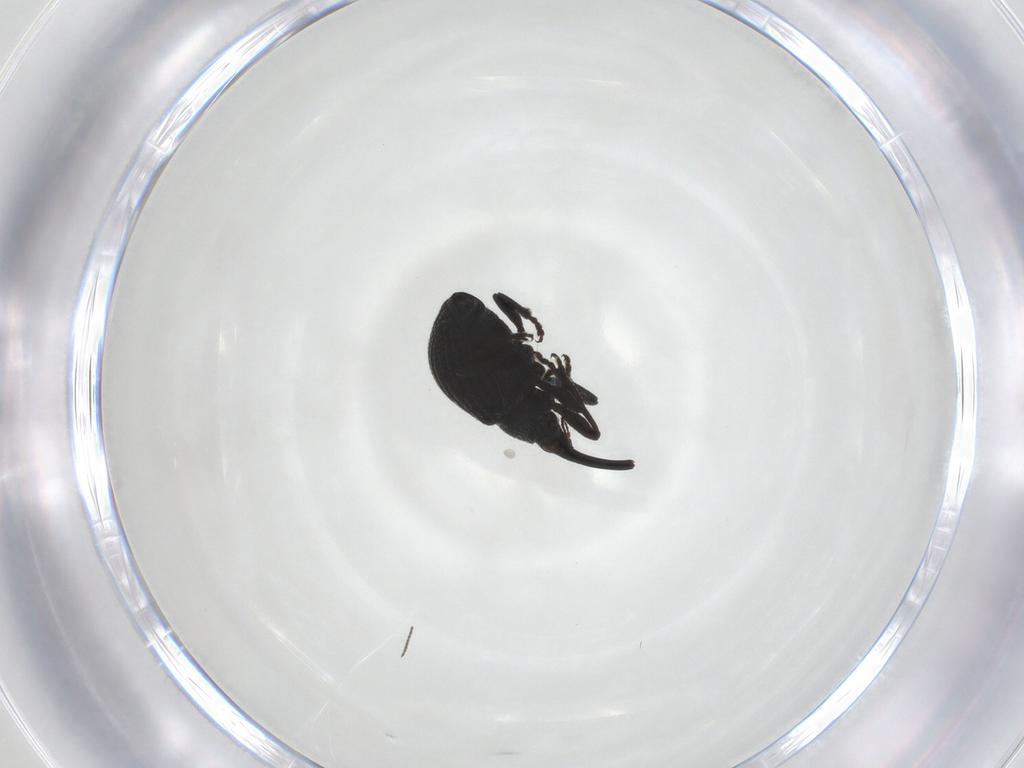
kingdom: Animalia
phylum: Arthropoda
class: Insecta
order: Coleoptera
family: Brentidae
